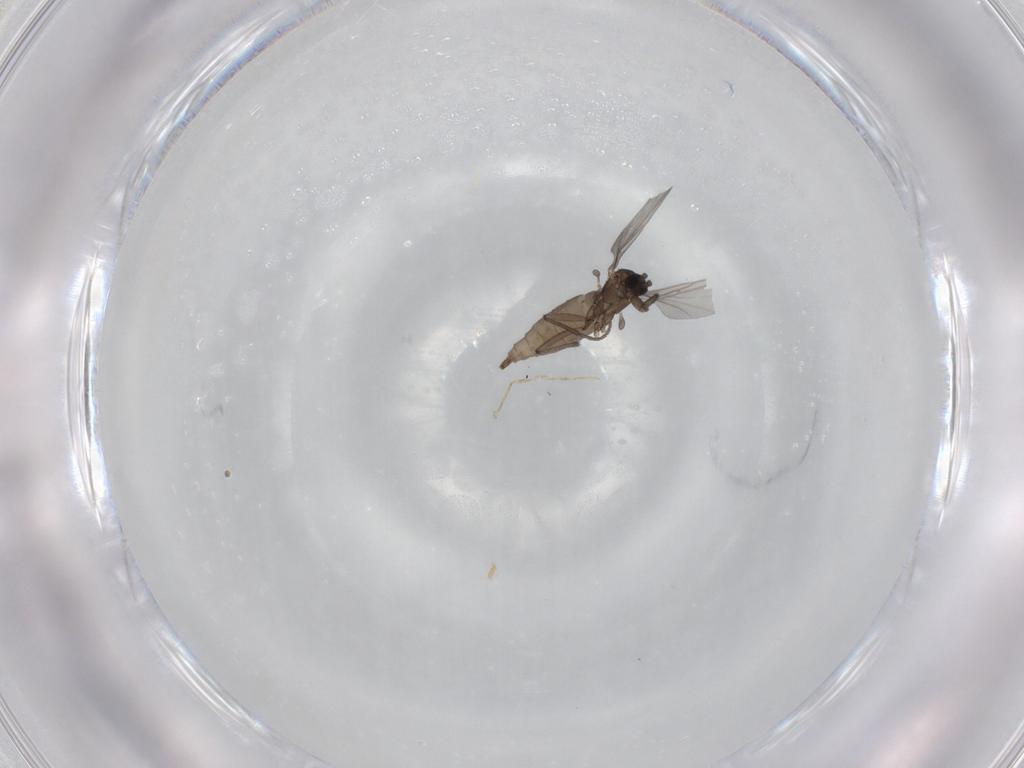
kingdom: Animalia
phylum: Arthropoda
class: Insecta
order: Diptera
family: Sciaridae
